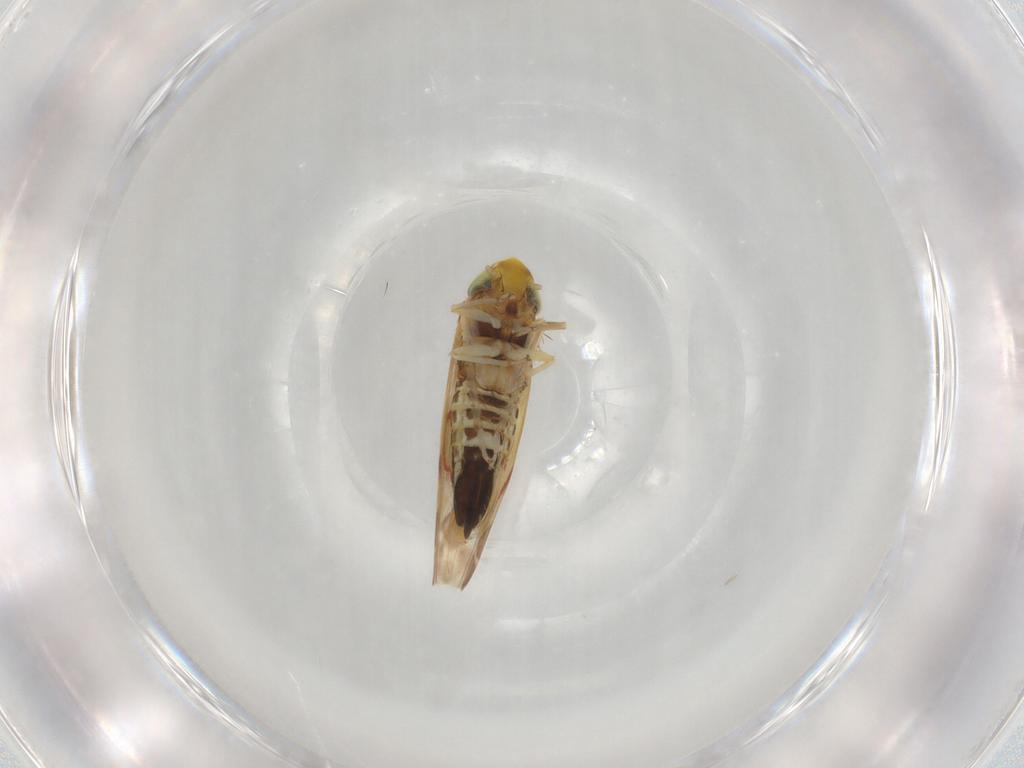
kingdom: Animalia
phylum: Arthropoda
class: Insecta
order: Hemiptera
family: Cicadellidae
